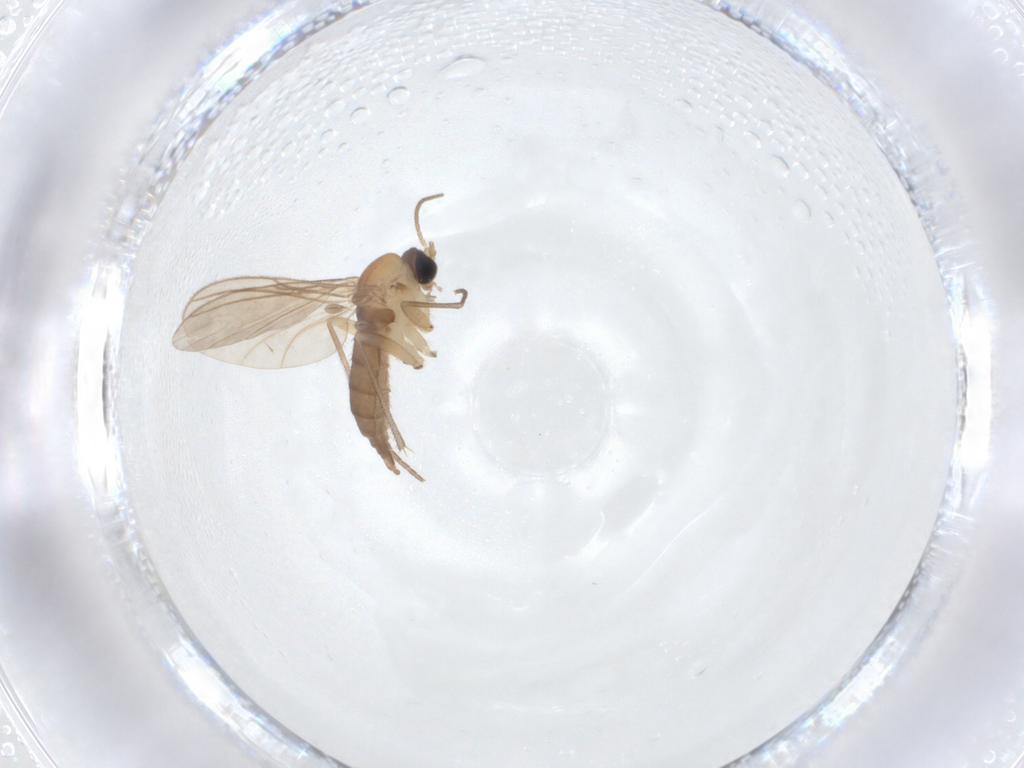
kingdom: Animalia
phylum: Arthropoda
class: Insecta
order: Diptera
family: Sciaridae
